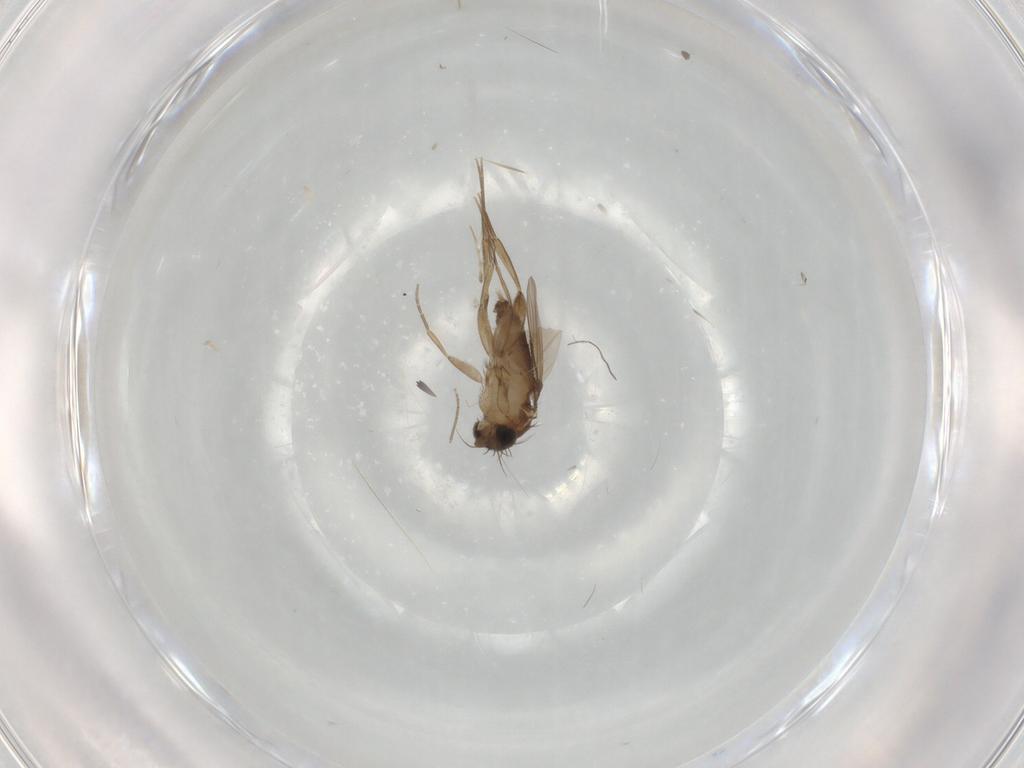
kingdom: Animalia
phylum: Arthropoda
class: Insecta
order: Diptera
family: Phoridae
